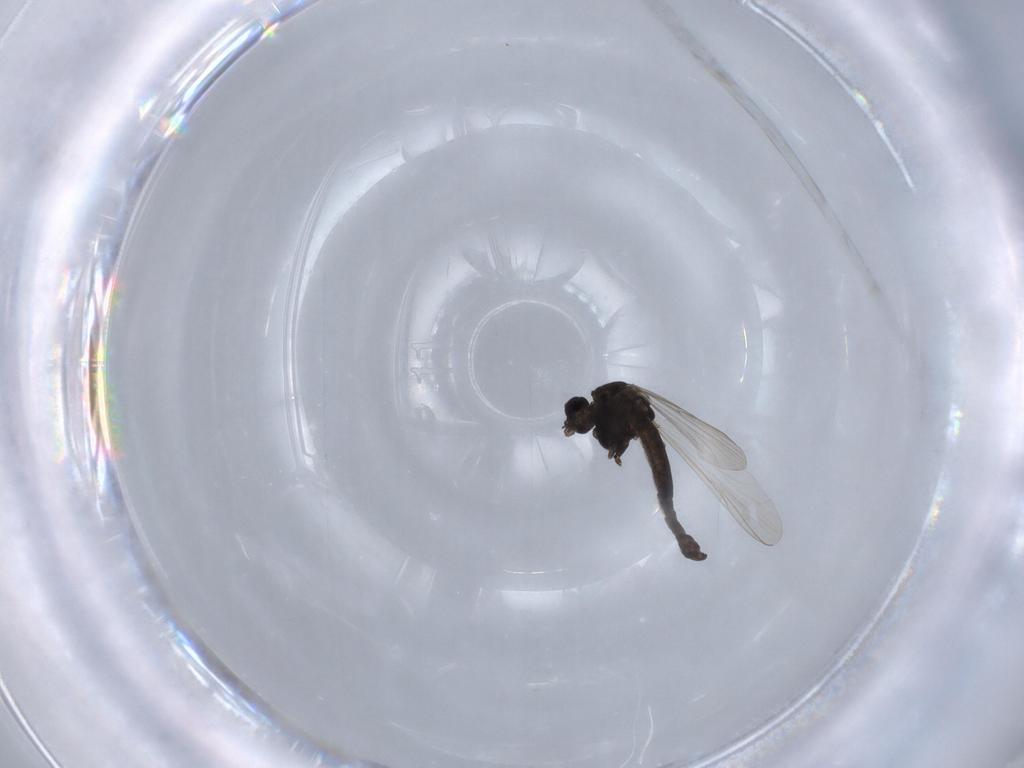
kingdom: Animalia
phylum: Arthropoda
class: Insecta
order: Diptera
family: Chironomidae
